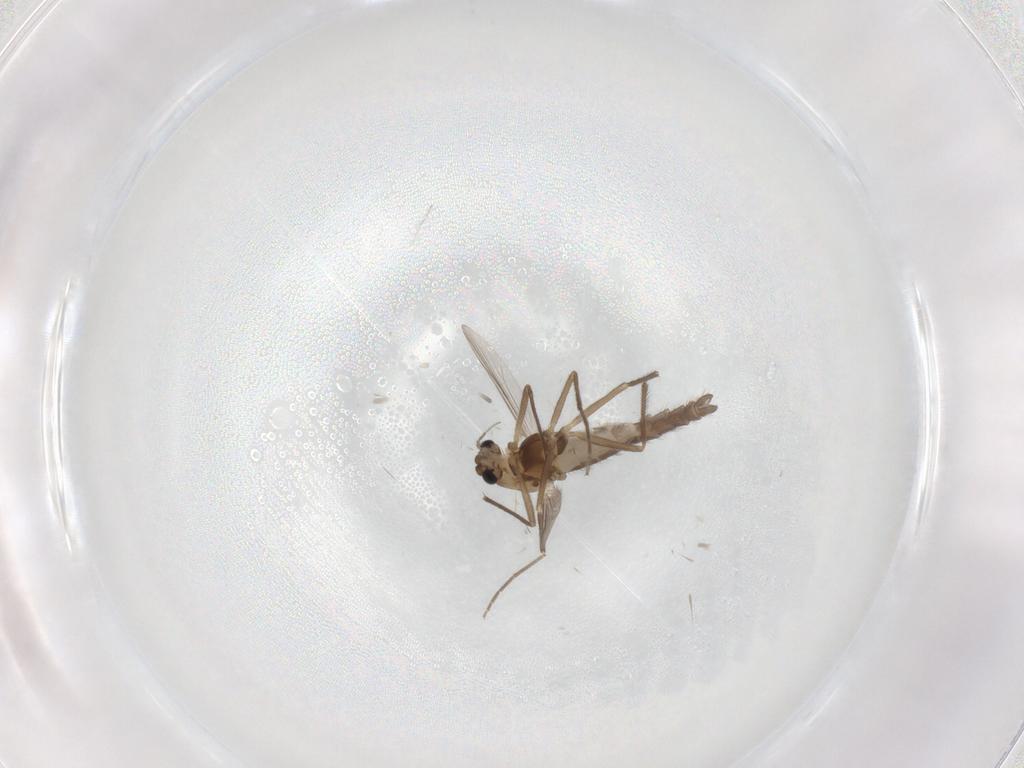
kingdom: Animalia
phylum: Arthropoda
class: Insecta
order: Diptera
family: Chironomidae
